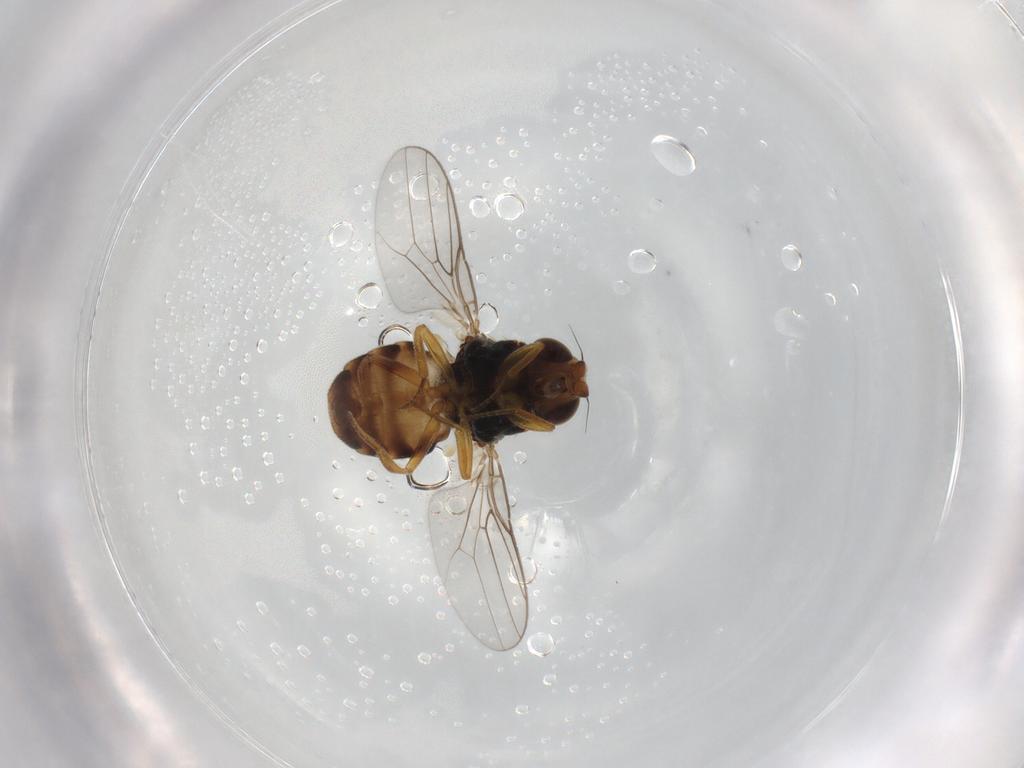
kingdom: Animalia
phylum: Arthropoda
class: Insecta
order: Diptera
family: Chloropidae
